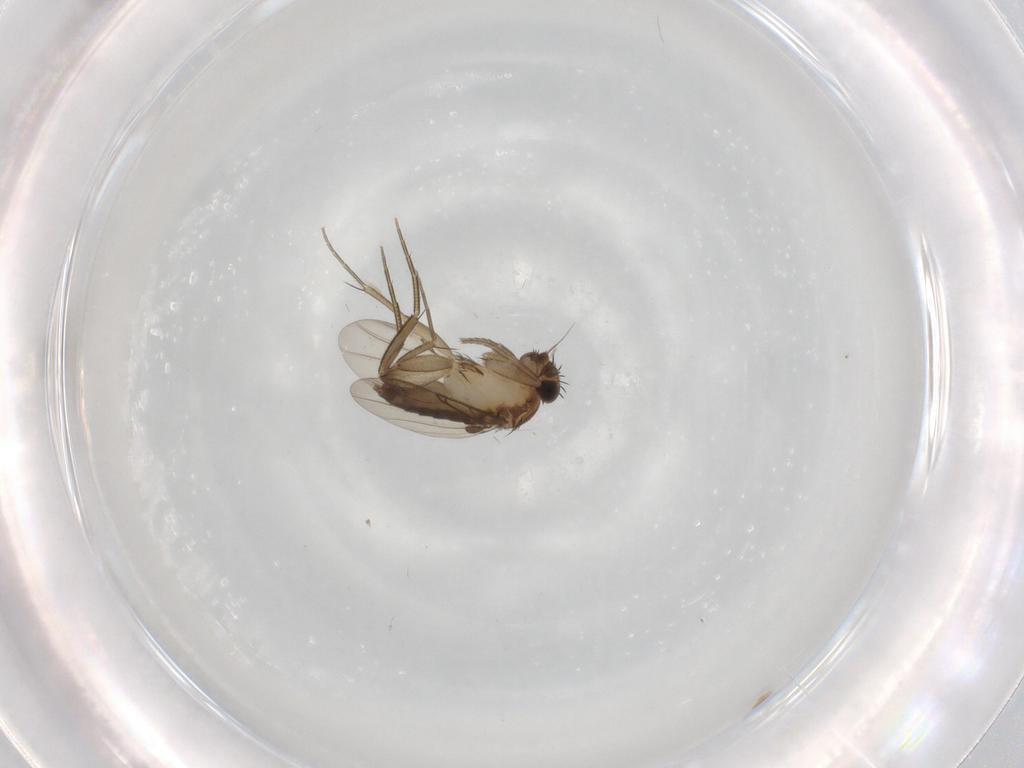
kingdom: Animalia
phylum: Arthropoda
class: Insecta
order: Diptera
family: Phoridae
